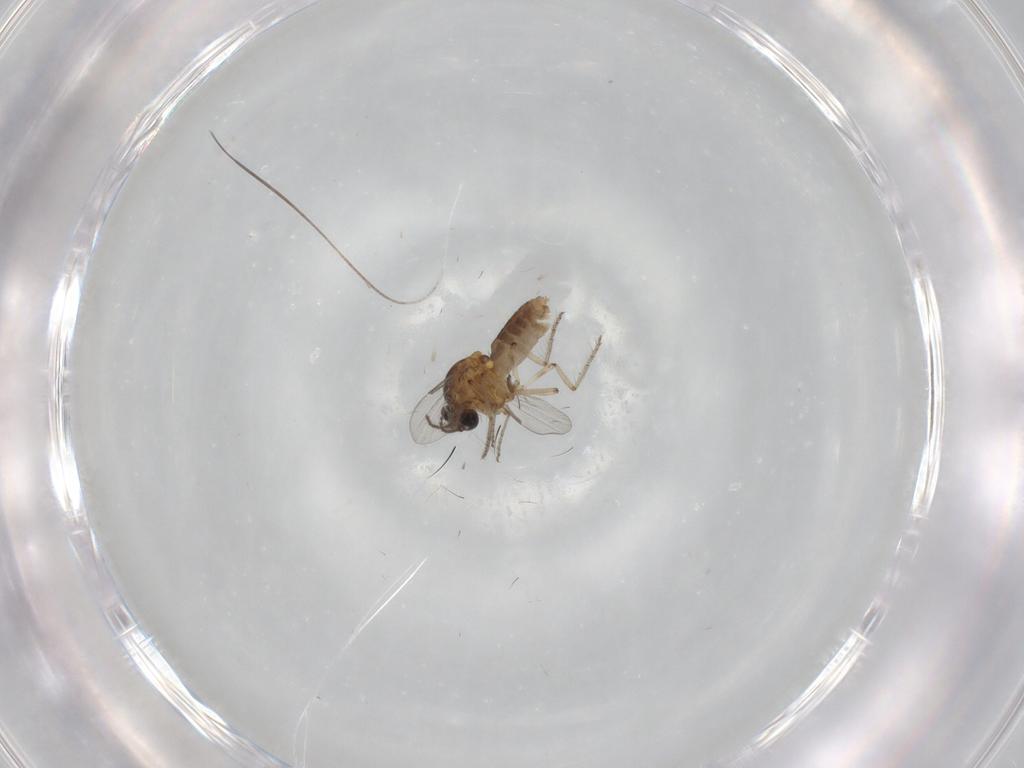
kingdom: Animalia
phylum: Arthropoda
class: Insecta
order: Diptera
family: Ceratopogonidae
